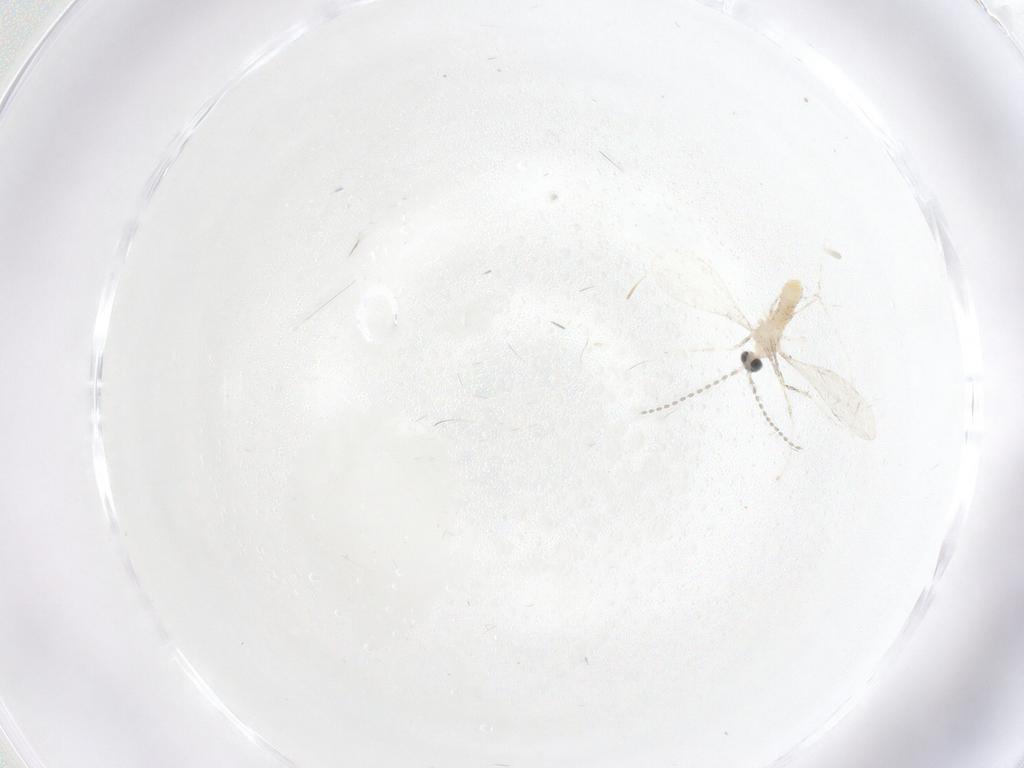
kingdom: Animalia
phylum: Arthropoda
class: Insecta
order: Diptera
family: Cecidomyiidae
